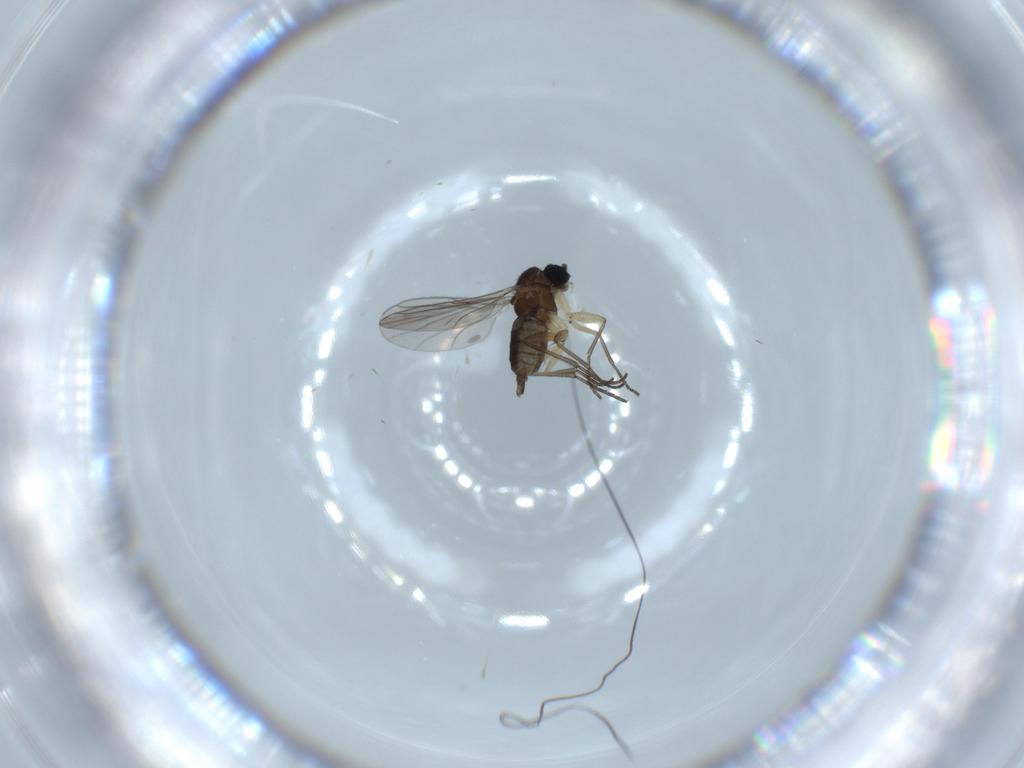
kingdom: Animalia
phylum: Arthropoda
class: Insecta
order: Diptera
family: Sciaridae
